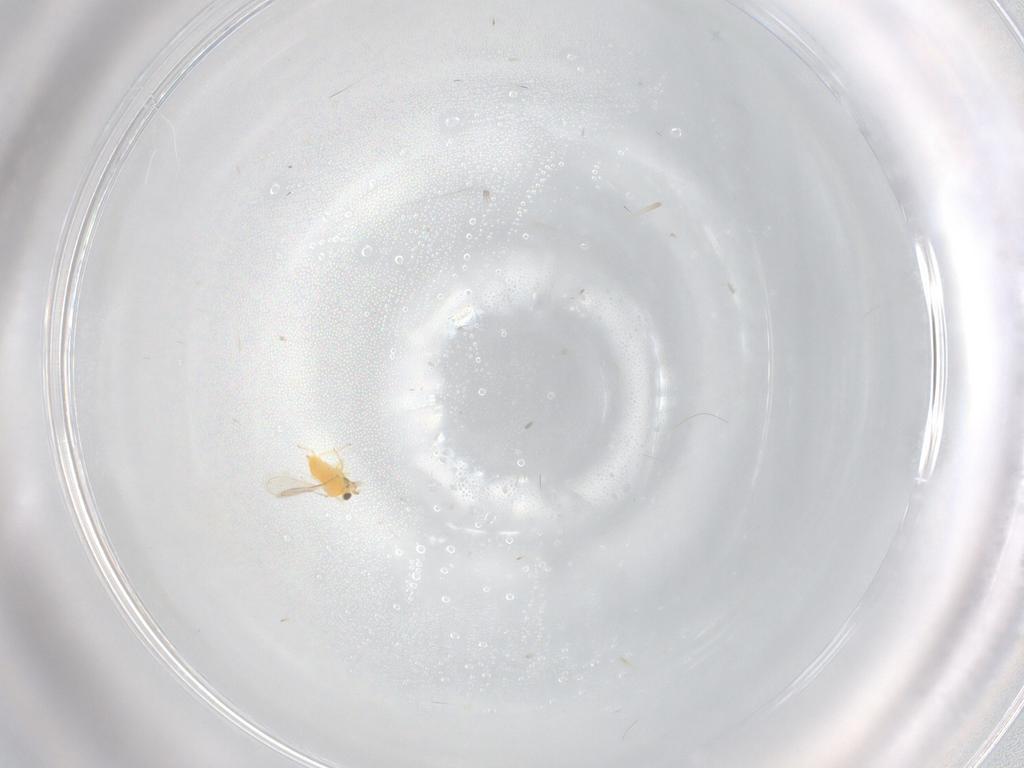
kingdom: Animalia
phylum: Arthropoda
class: Insecta
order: Hymenoptera
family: Aphelinidae
